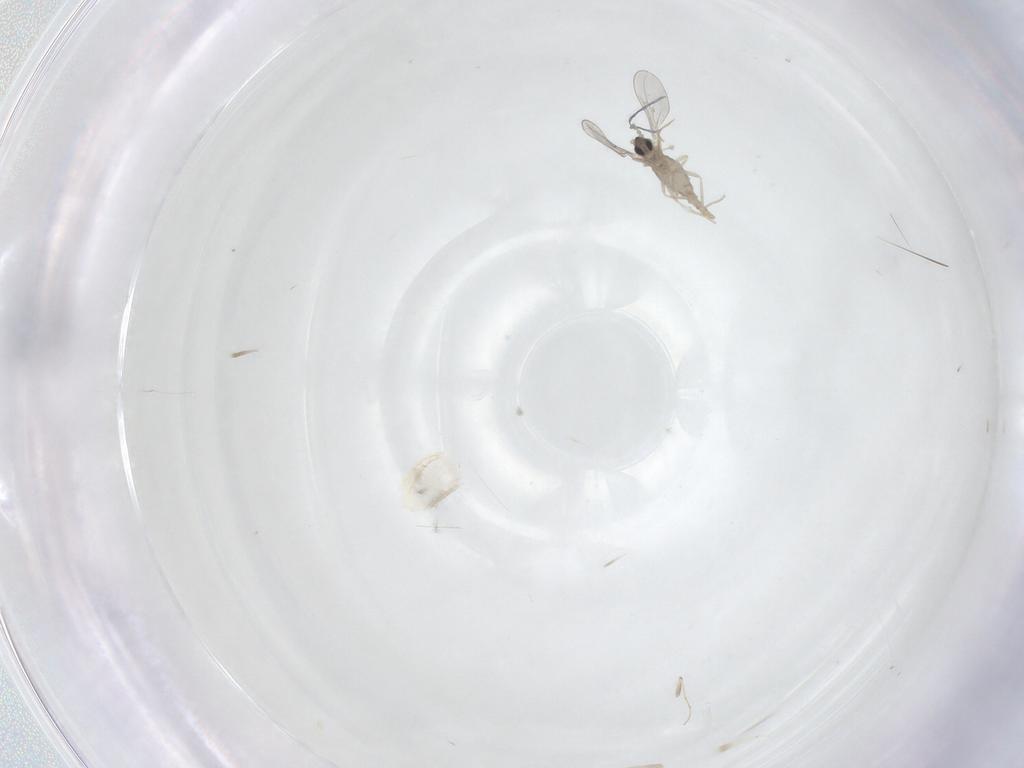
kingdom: Animalia
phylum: Arthropoda
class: Insecta
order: Diptera
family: Cecidomyiidae
